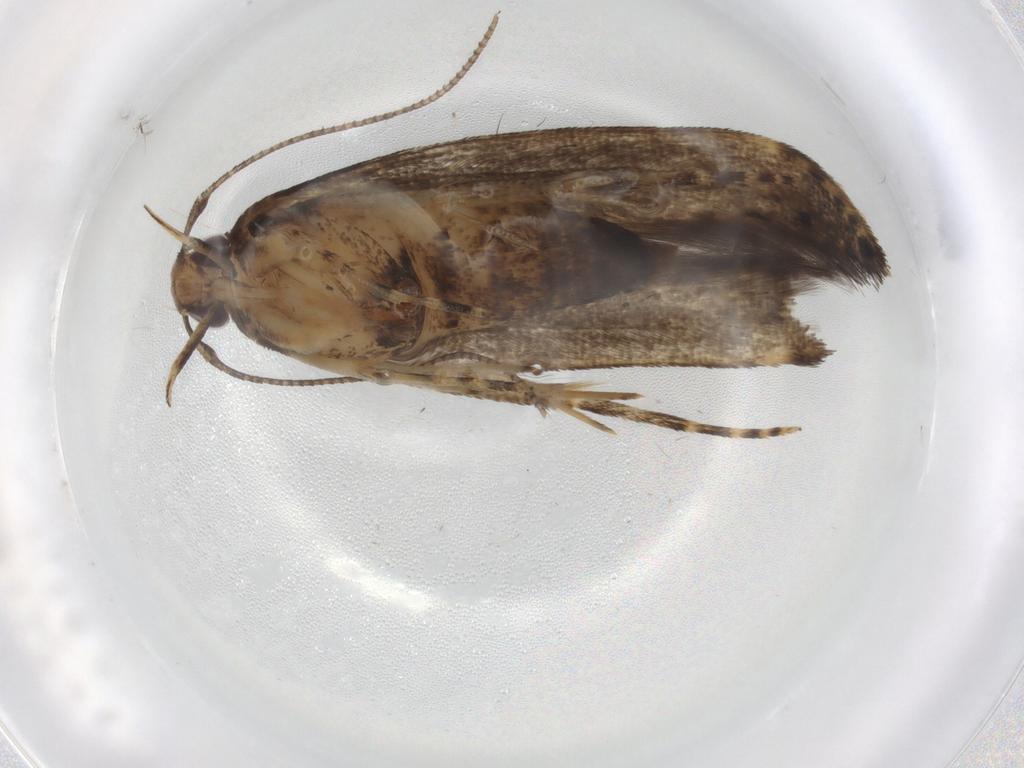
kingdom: Animalia
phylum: Arthropoda
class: Insecta
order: Lepidoptera
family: Cosmopterigidae
